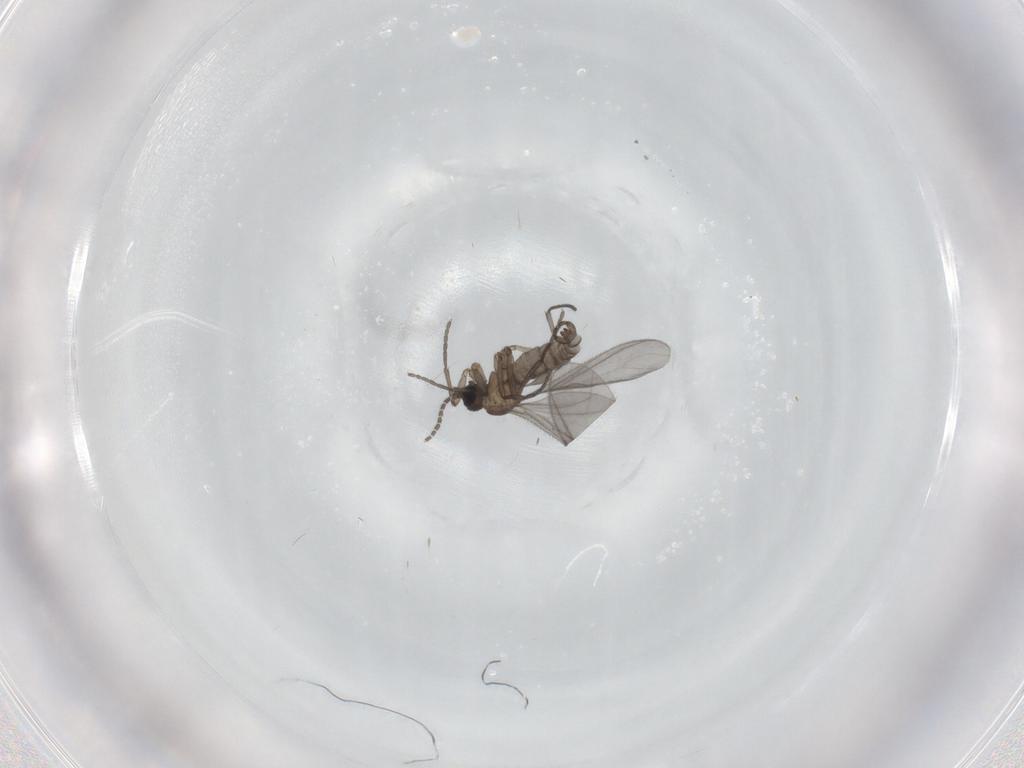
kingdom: Animalia
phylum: Arthropoda
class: Insecta
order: Diptera
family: Sciaridae
